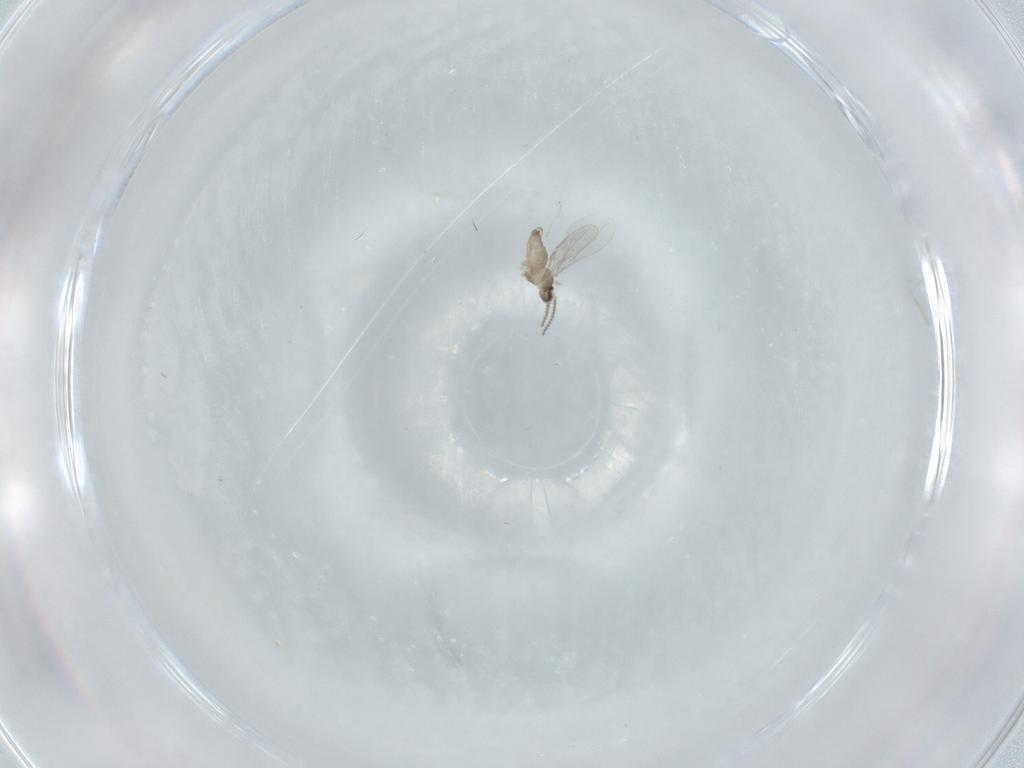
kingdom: Animalia
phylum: Arthropoda
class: Insecta
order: Diptera
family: Cecidomyiidae
